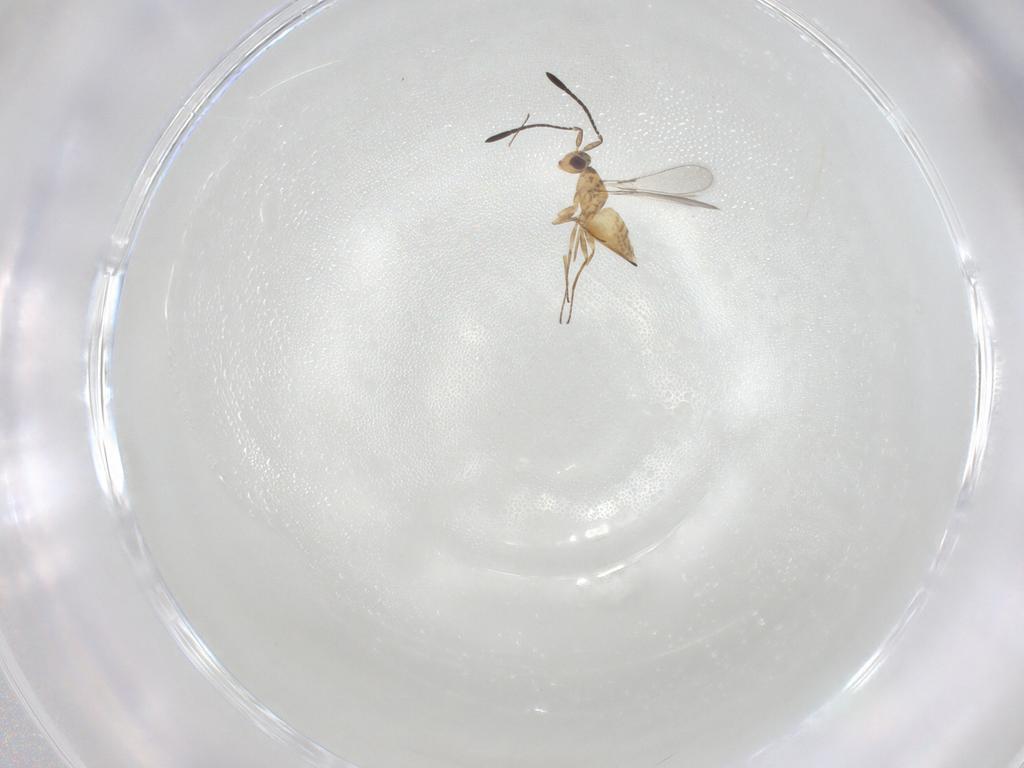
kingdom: Animalia
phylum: Arthropoda
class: Insecta
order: Hymenoptera
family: Mymaridae
